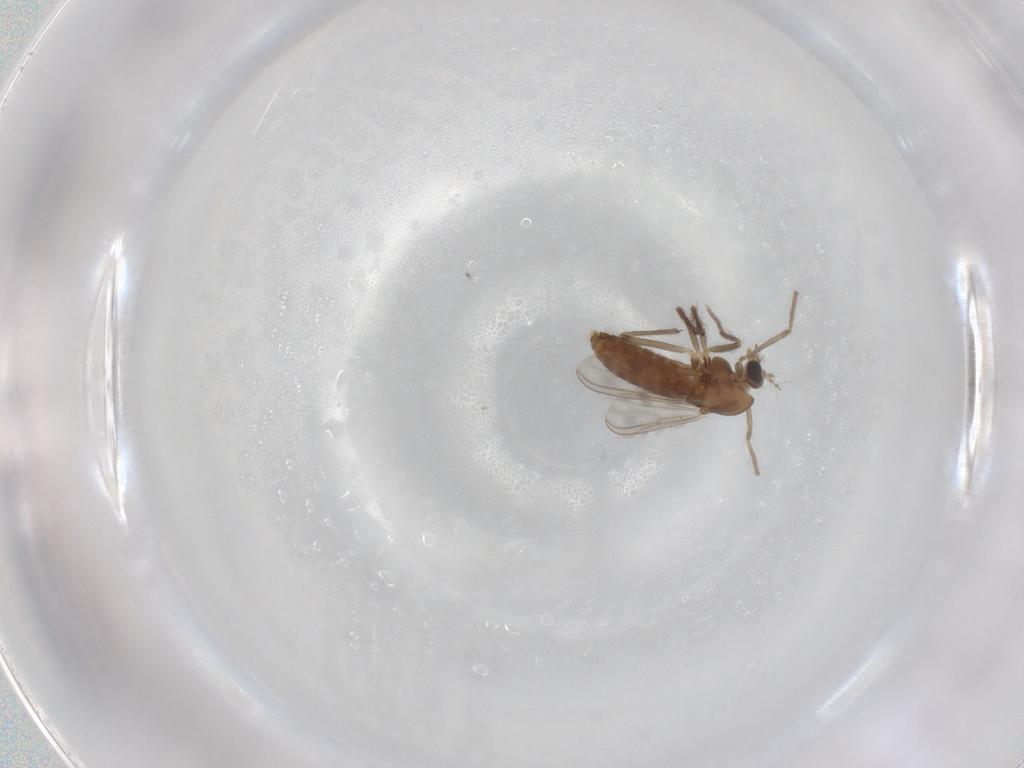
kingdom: Animalia
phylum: Arthropoda
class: Insecta
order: Diptera
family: Chironomidae
